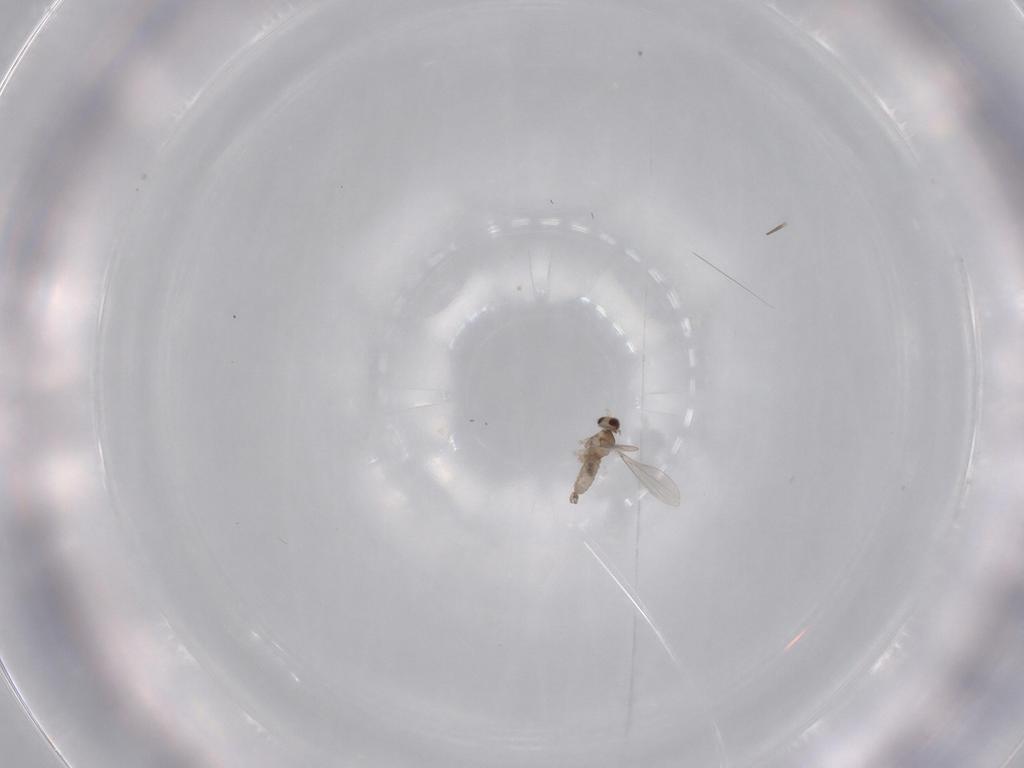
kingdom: Animalia
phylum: Arthropoda
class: Insecta
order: Diptera
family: Cecidomyiidae
